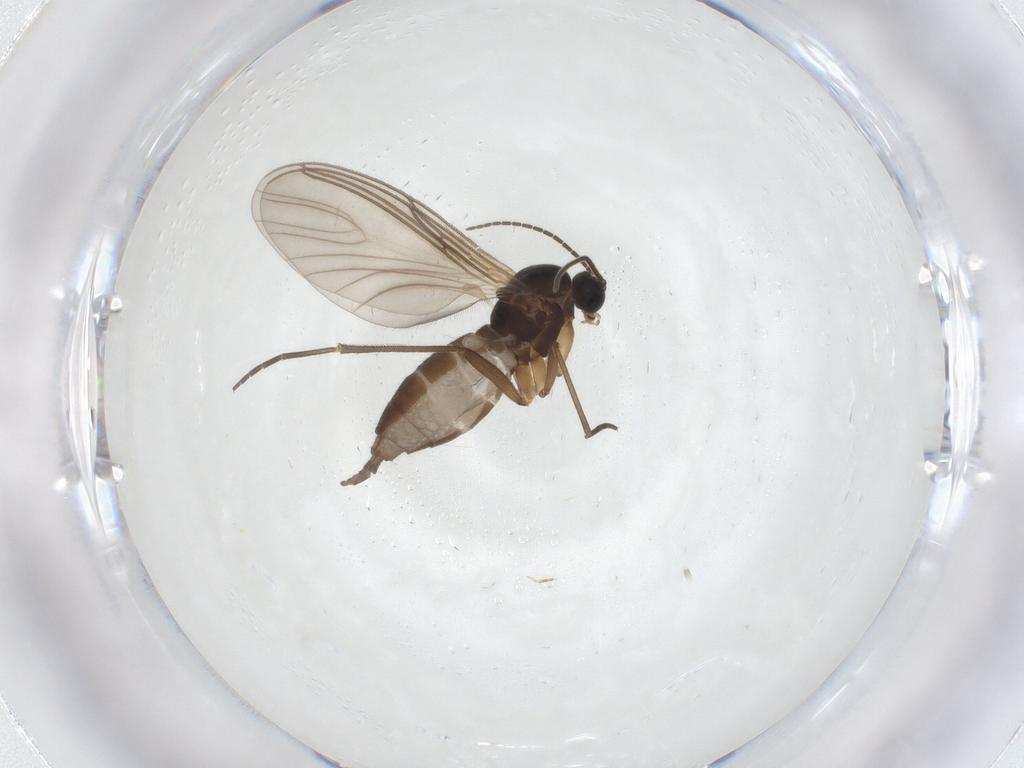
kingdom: Animalia
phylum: Arthropoda
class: Insecta
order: Diptera
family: Sciaridae
